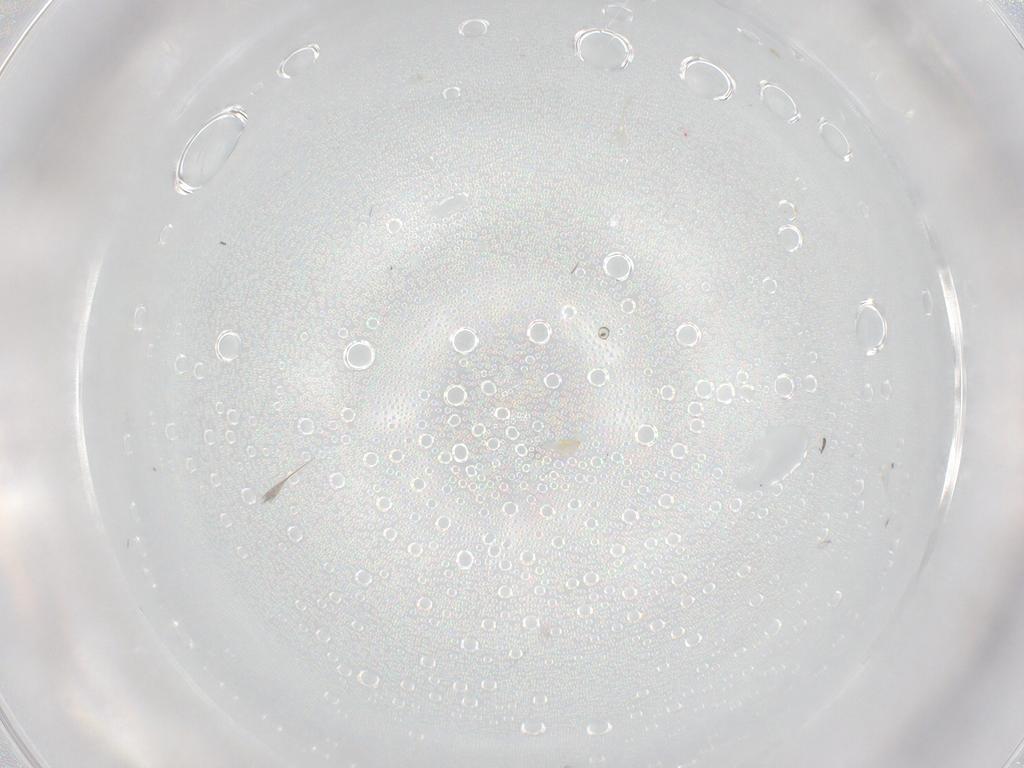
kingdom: Animalia
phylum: Arthropoda
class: Insecta
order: Diptera
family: Cecidomyiidae
